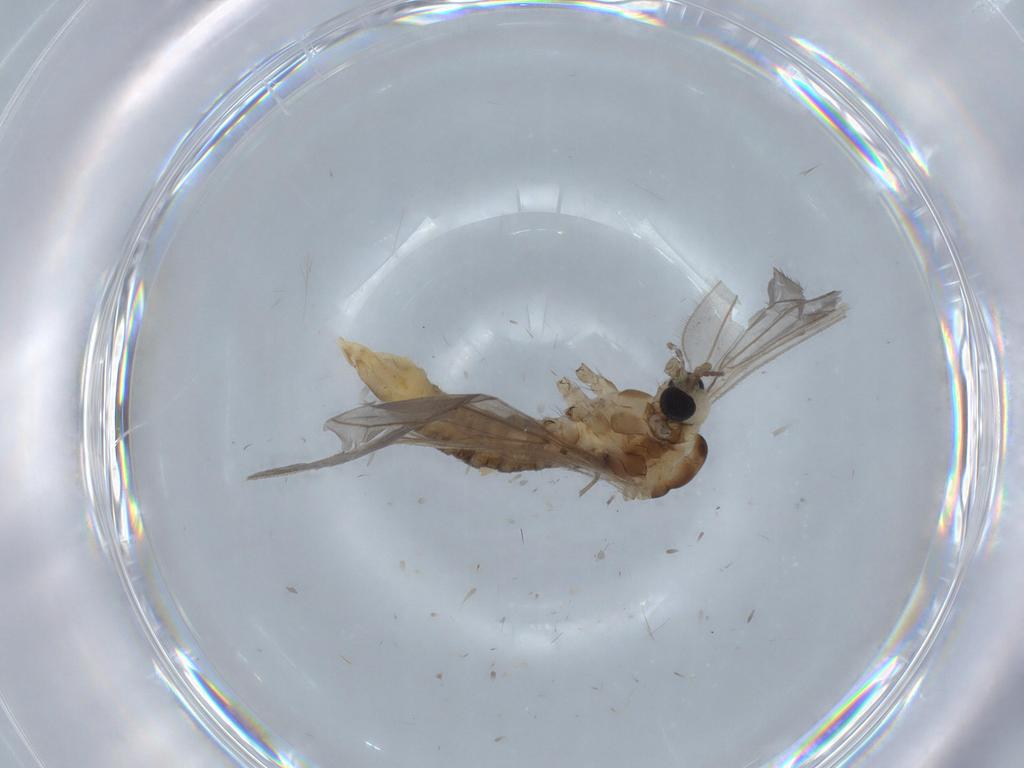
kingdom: Animalia
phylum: Arthropoda
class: Insecta
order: Diptera
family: Limoniidae
